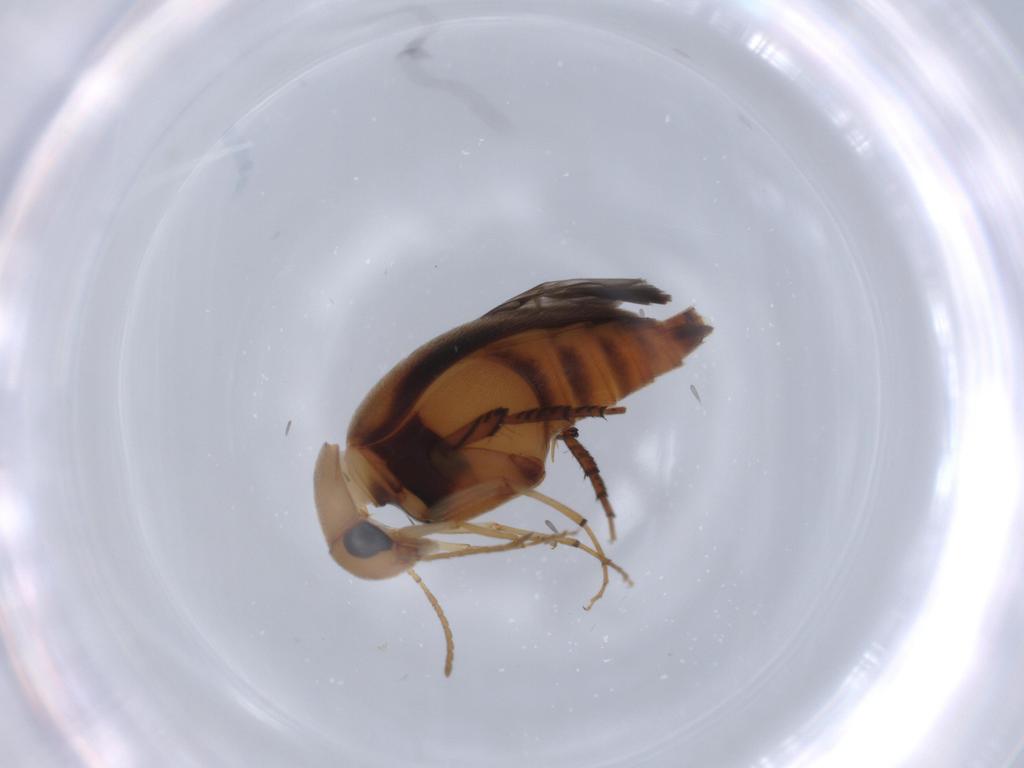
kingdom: Animalia
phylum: Arthropoda
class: Insecta
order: Coleoptera
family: Mordellidae
